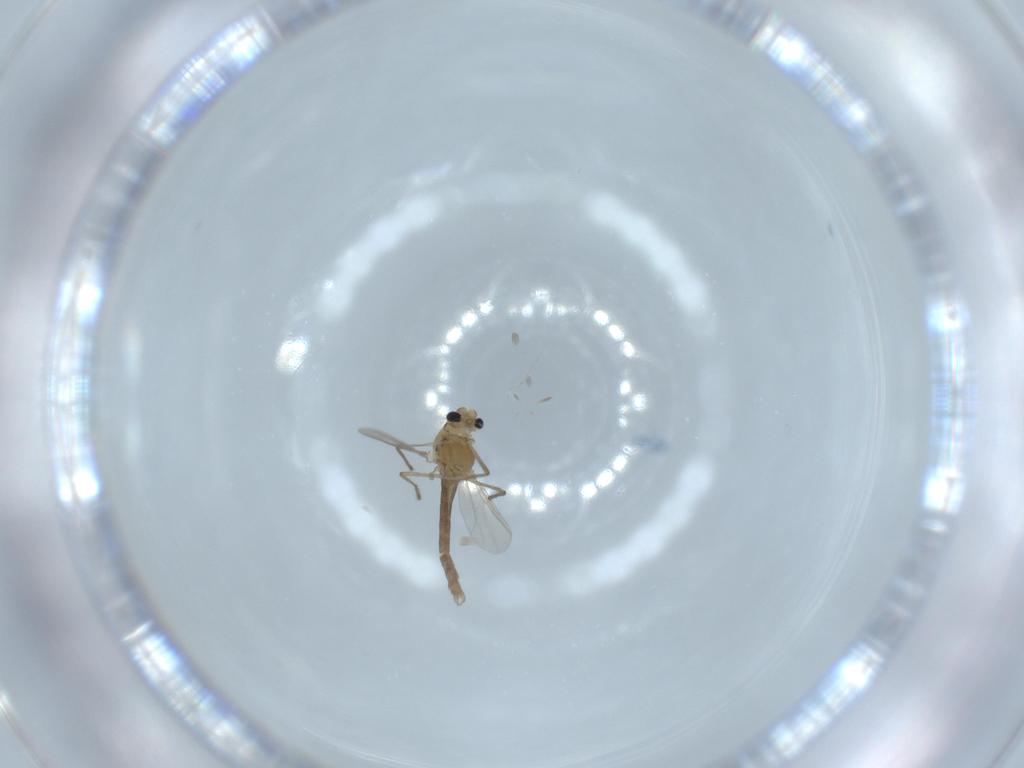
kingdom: Animalia
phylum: Arthropoda
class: Insecta
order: Diptera
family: Chironomidae
